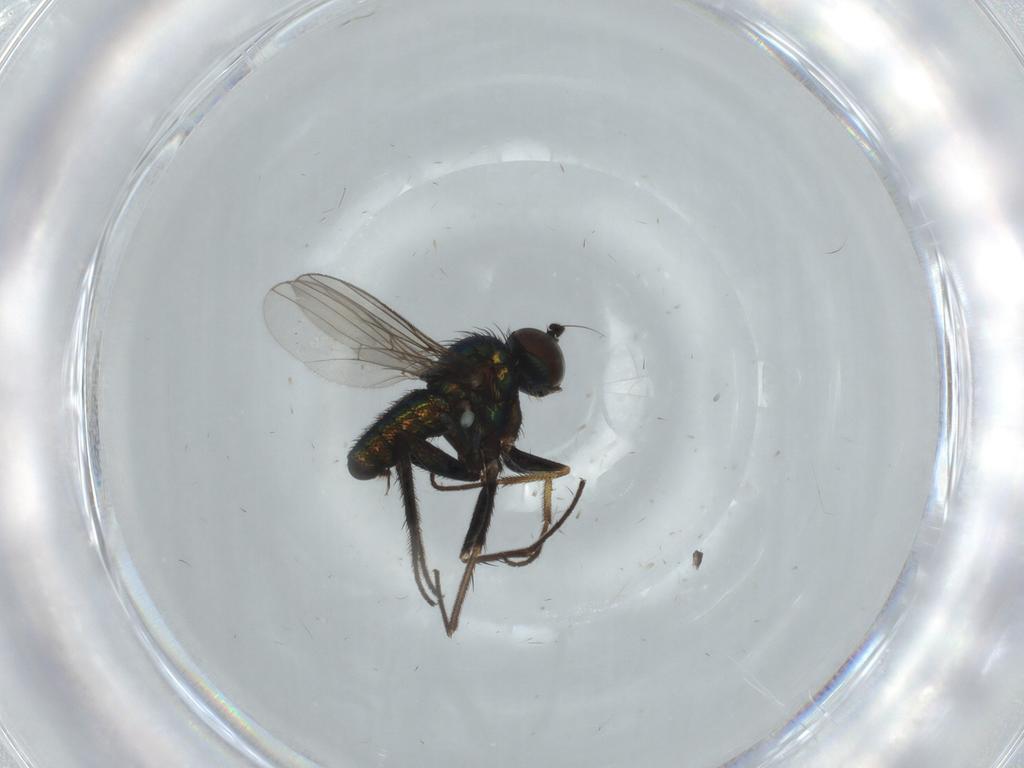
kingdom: Animalia
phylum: Arthropoda
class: Insecta
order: Diptera
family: Dolichopodidae
